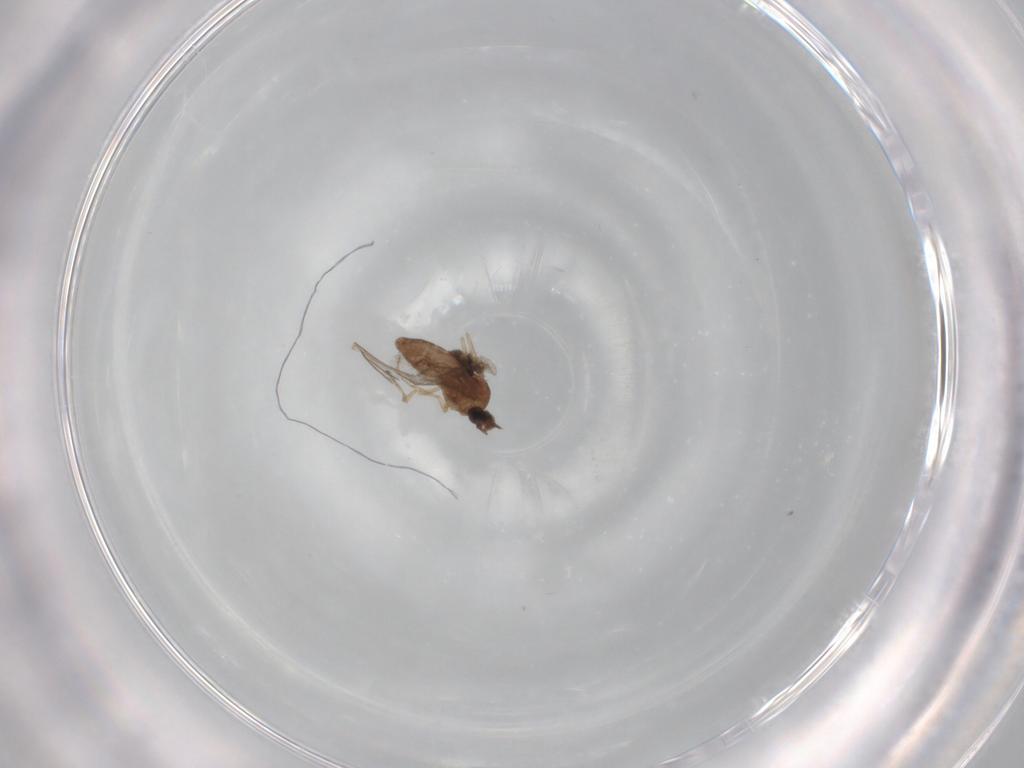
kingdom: Animalia
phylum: Arthropoda
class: Insecta
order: Diptera
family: Ceratopogonidae
